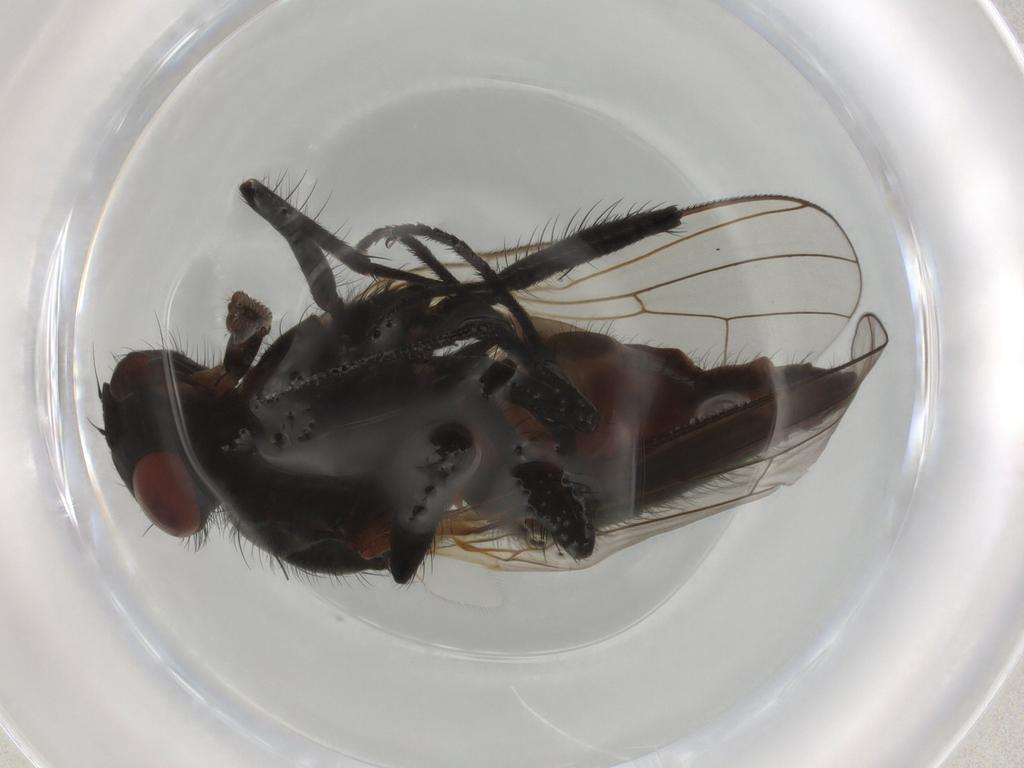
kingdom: Animalia
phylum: Arthropoda
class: Insecta
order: Diptera
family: Anthomyiidae
